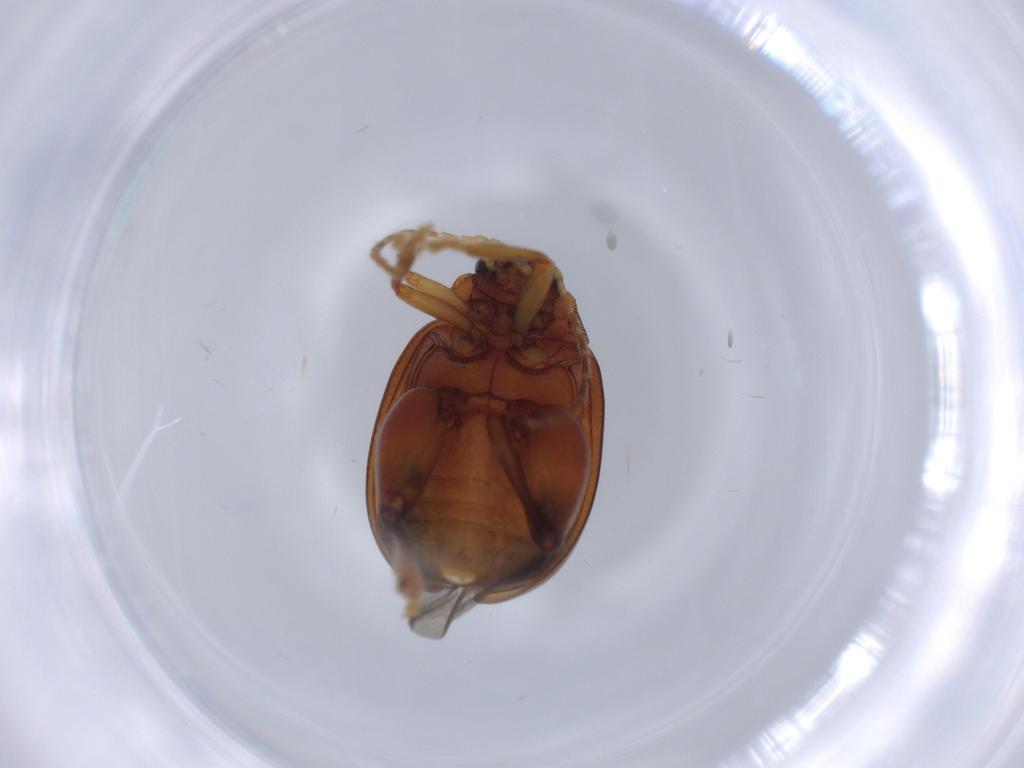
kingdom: Animalia
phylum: Arthropoda
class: Insecta
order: Coleoptera
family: Chrysomelidae
